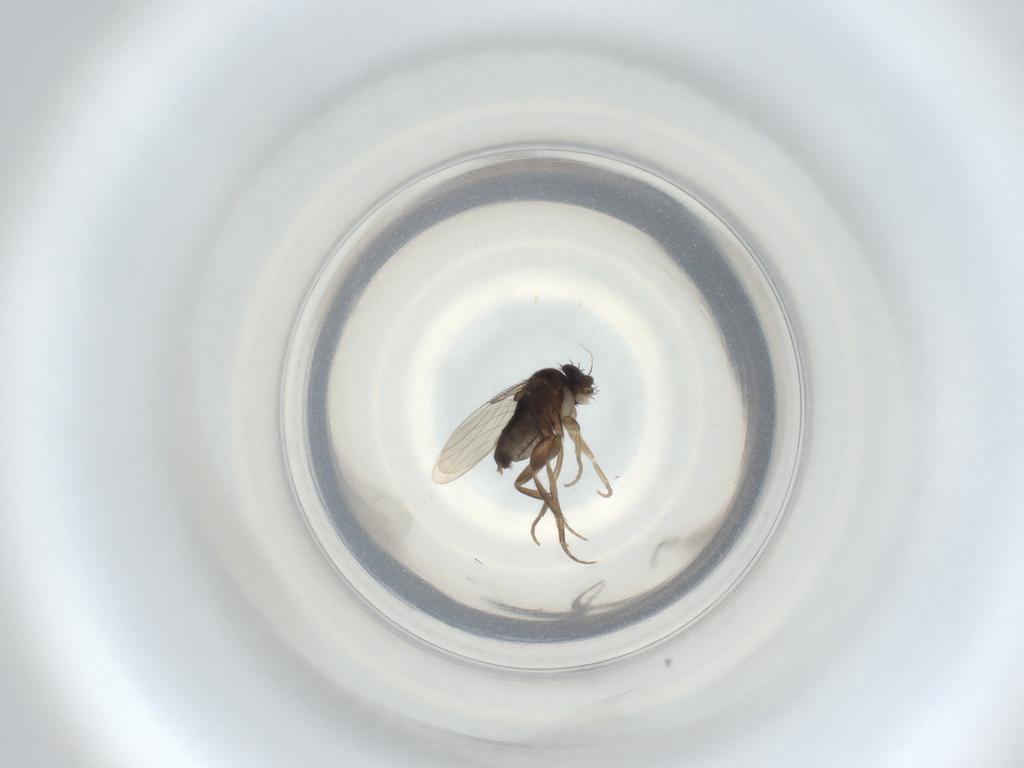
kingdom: Animalia
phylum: Arthropoda
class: Insecta
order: Diptera
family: Phoridae
